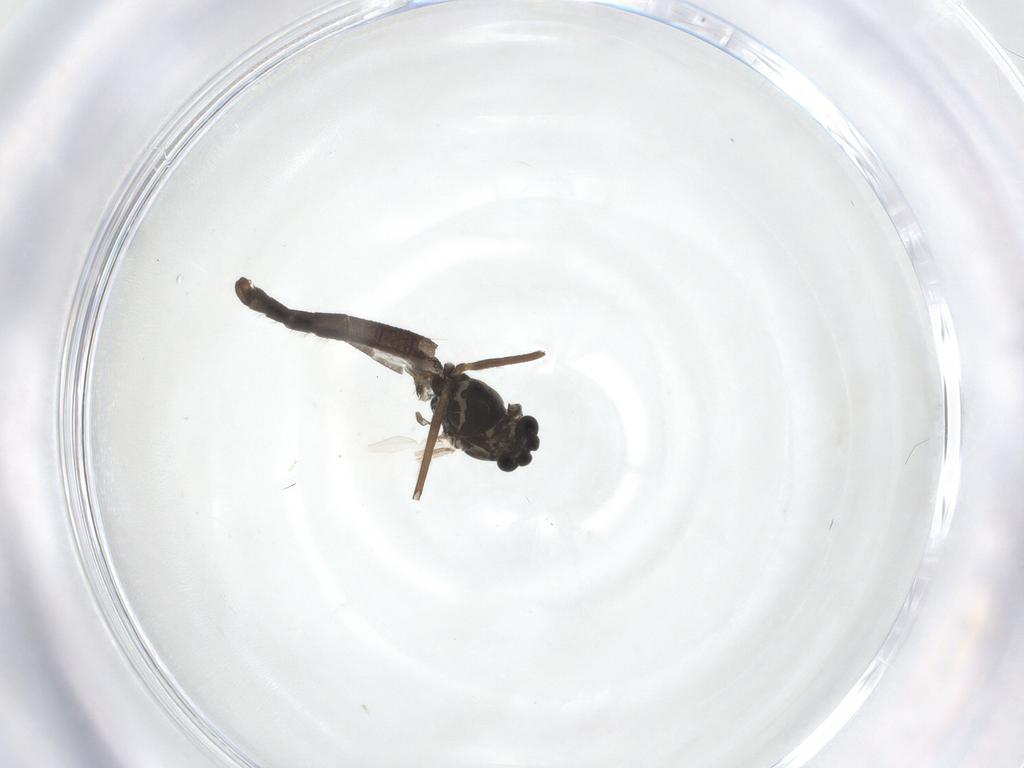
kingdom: Animalia
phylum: Arthropoda
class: Insecta
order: Diptera
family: Chironomidae
